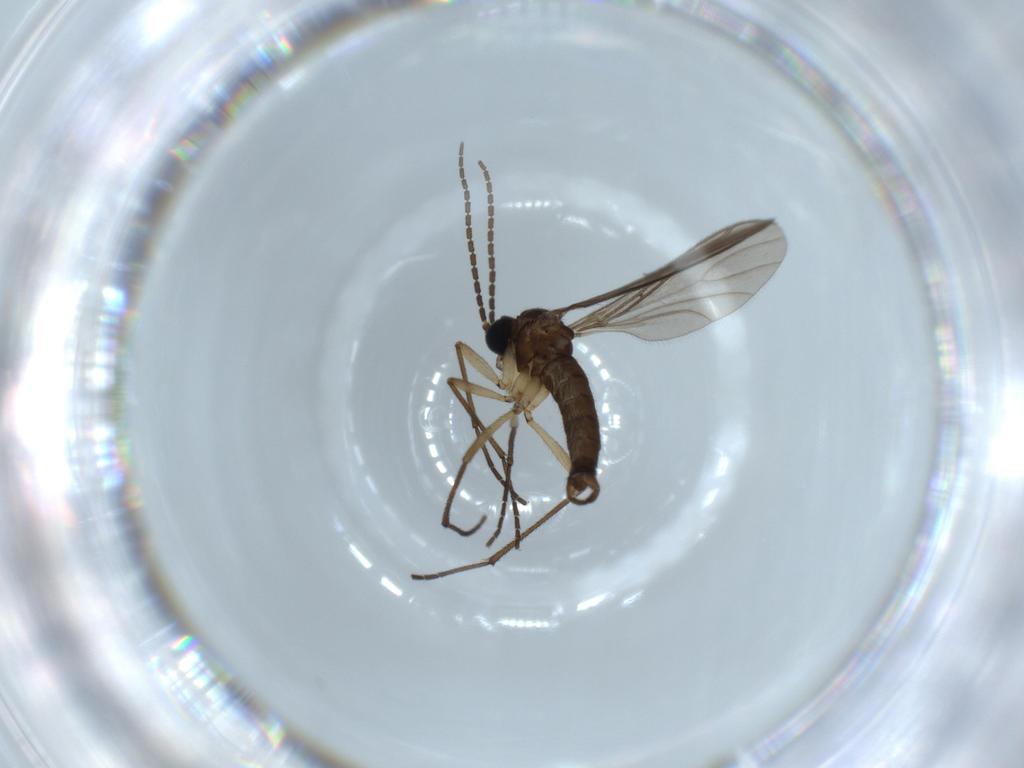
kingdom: Animalia
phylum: Arthropoda
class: Insecta
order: Diptera
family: Sciaridae
